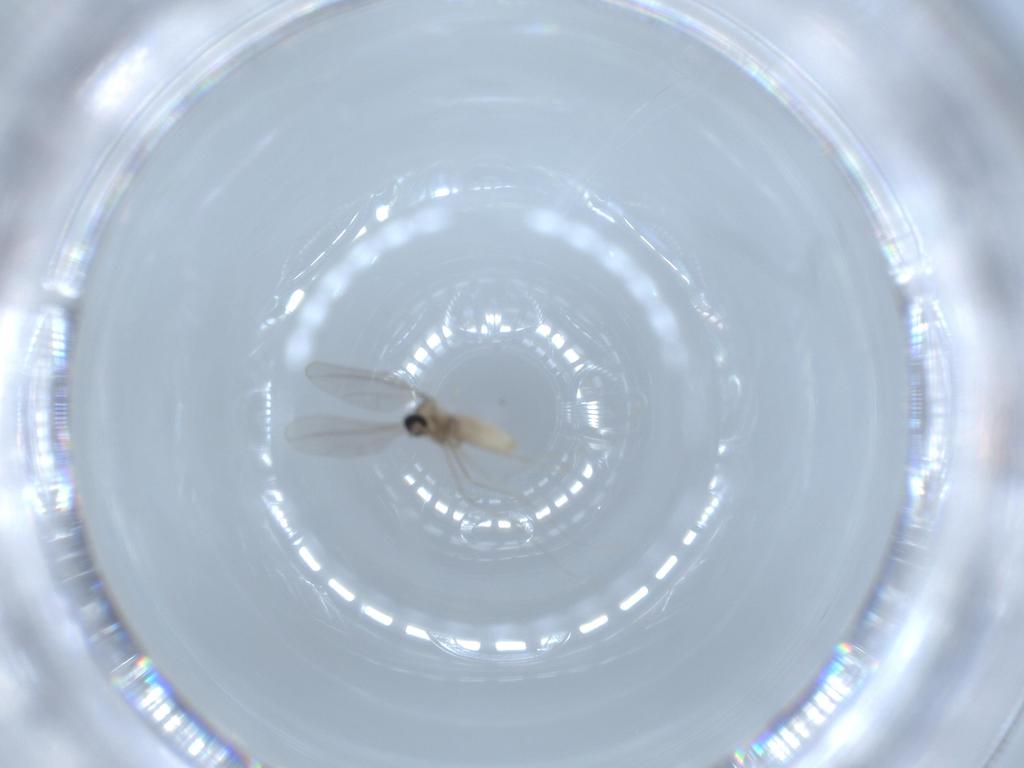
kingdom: Animalia
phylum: Arthropoda
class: Insecta
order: Diptera
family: Cecidomyiidae
